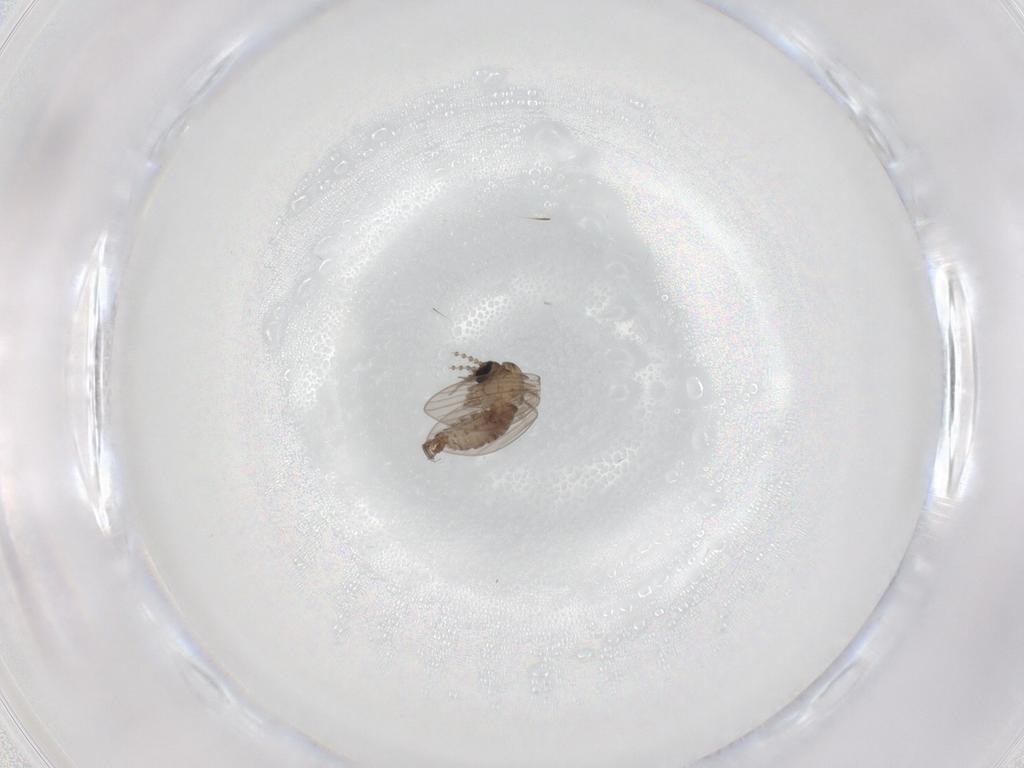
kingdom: Animalia
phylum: Arthropoda
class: Insecta
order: Diptera
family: Psychodidae
